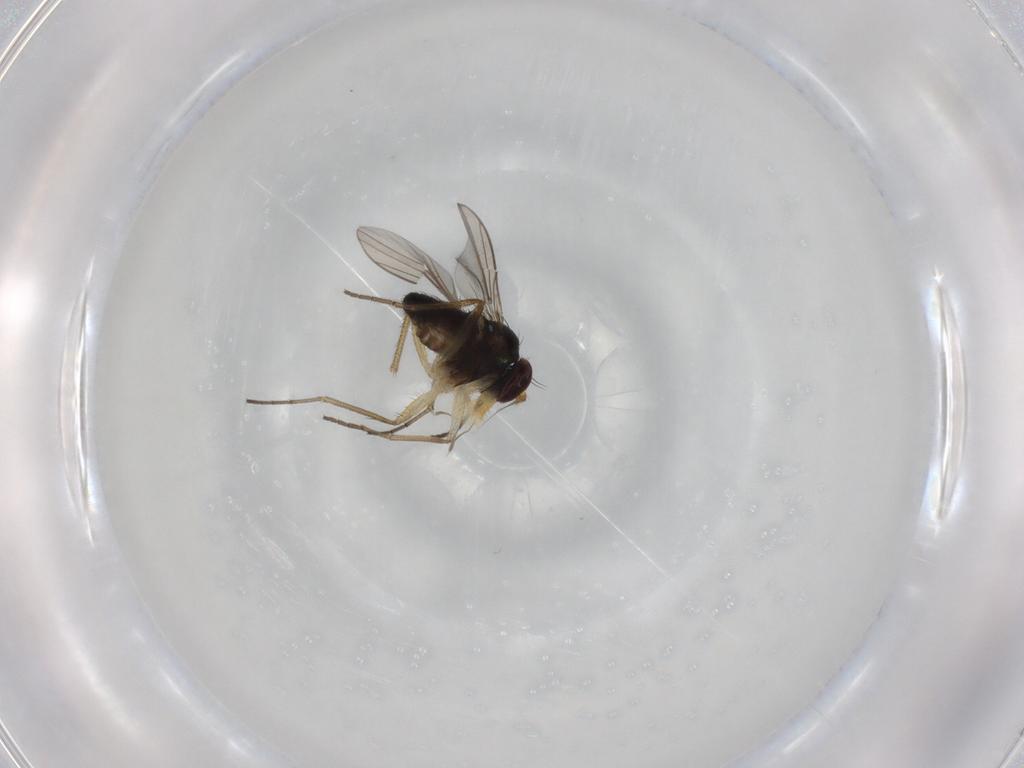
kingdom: Animalia
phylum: Arthropoda
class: Insecta
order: Diptera
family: Dolichopodidae
